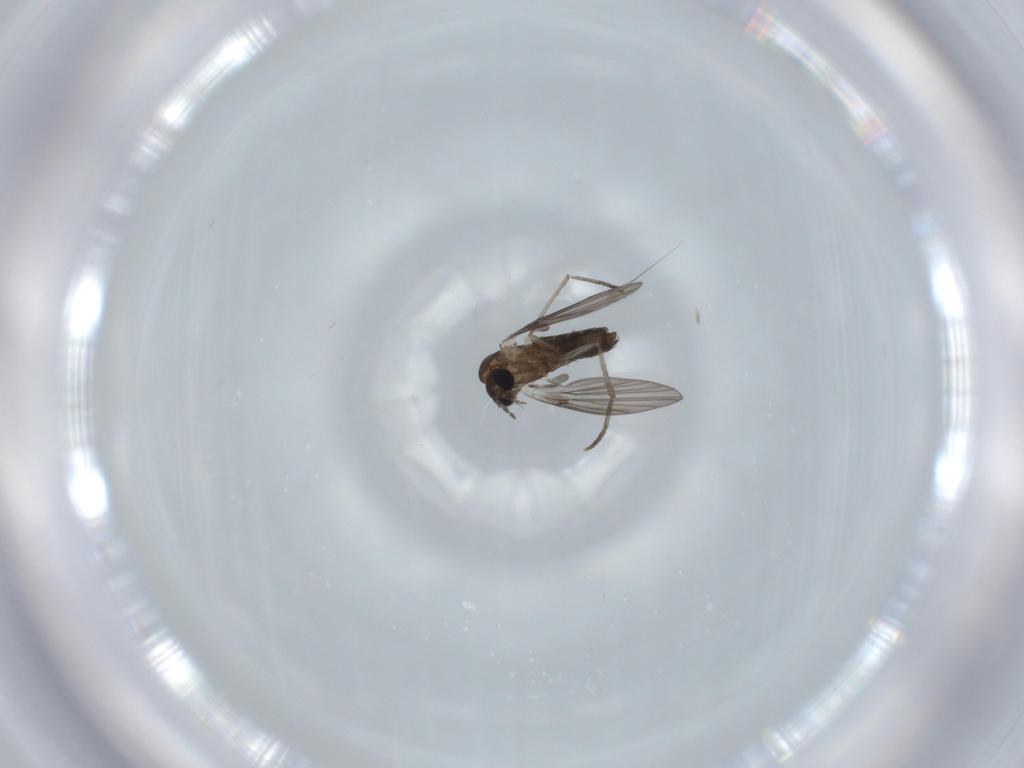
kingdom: Animalia
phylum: Arthropoda
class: Insecta
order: Diptera
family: Psychodidae
